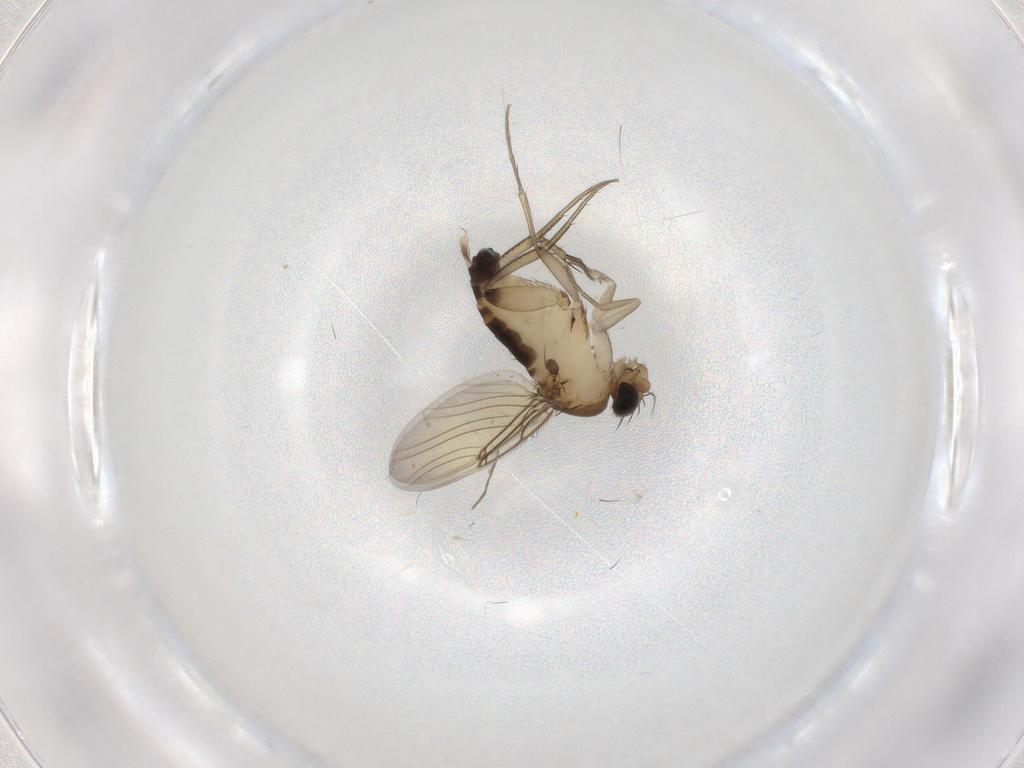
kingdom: Animalia
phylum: Arthropoda
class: Insecta
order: Diptera
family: Phoridae
